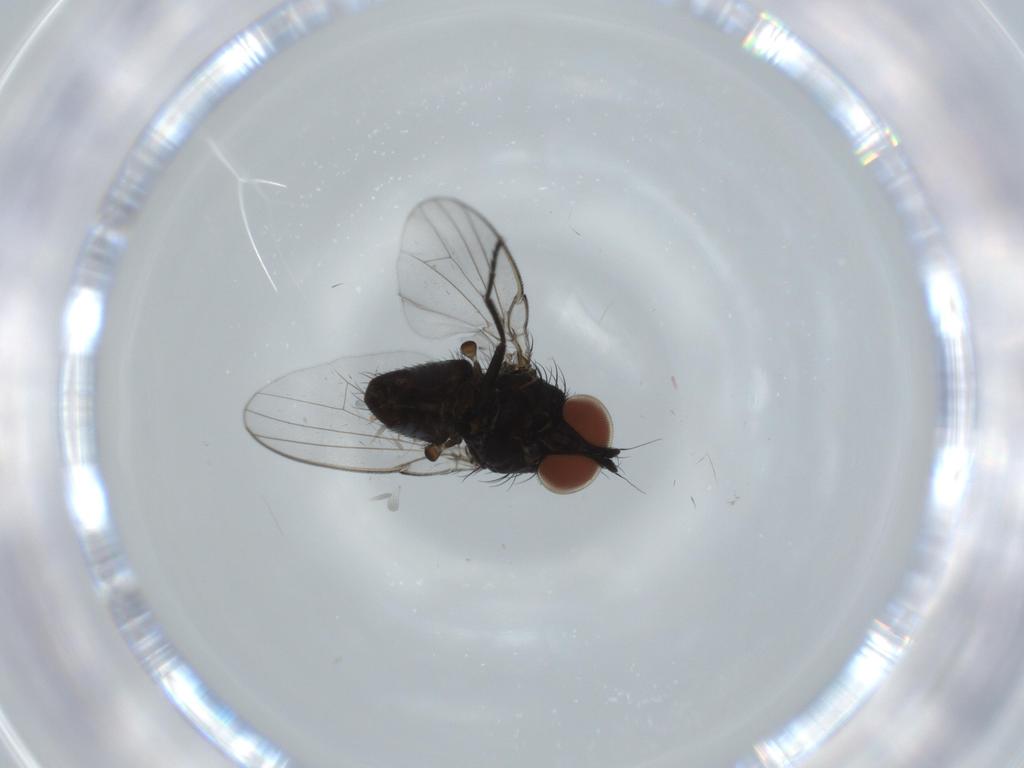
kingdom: Animalia
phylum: Arthropoda
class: Insecta
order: Diptera
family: Milichiidae
